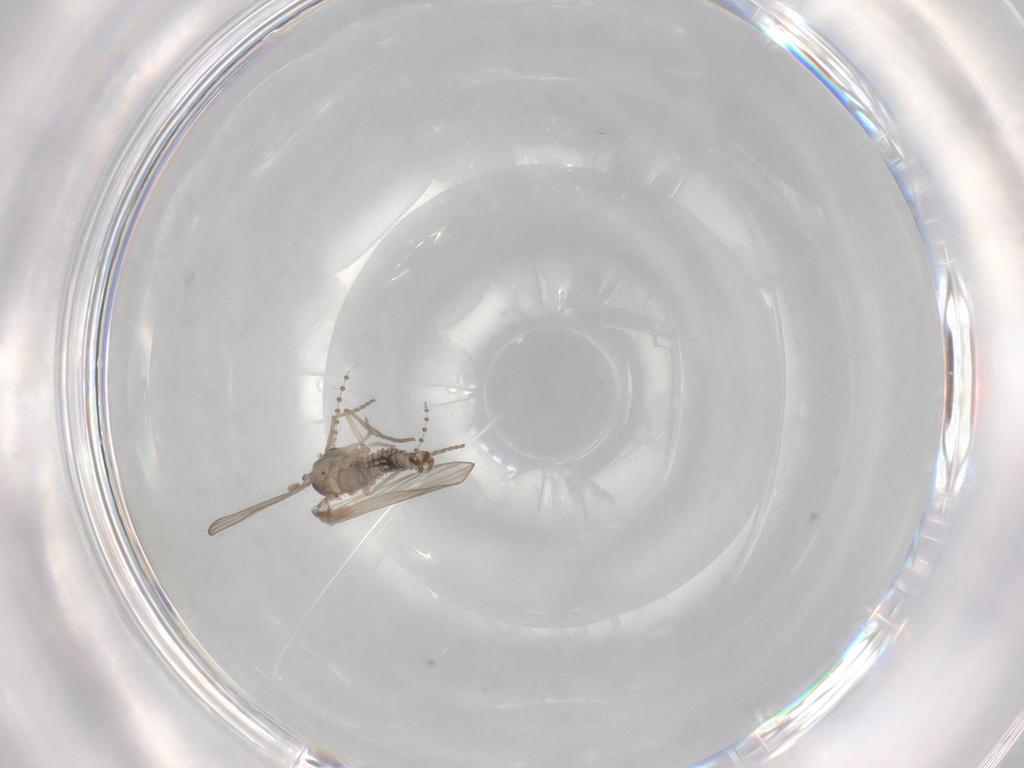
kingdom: Animalia
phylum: Arthropoda
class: Insecta
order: Diptera
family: Psychodidae
